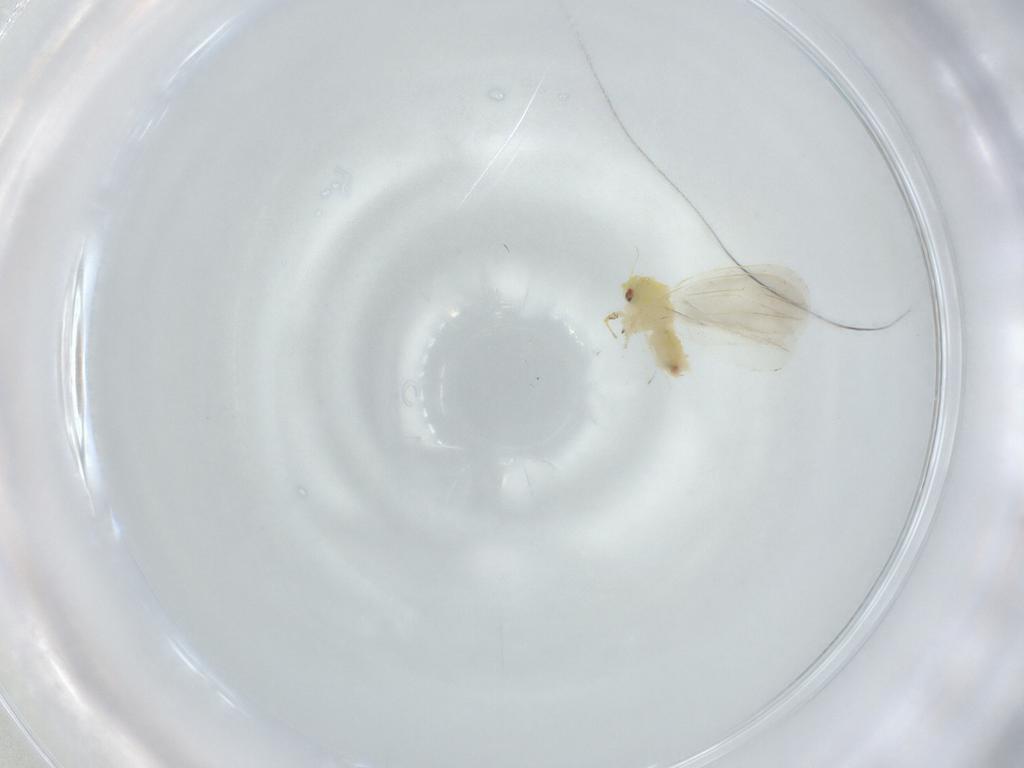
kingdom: Animalia
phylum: Arthropoda
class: Insecta
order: Hemiptera
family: Aleyrodidae
